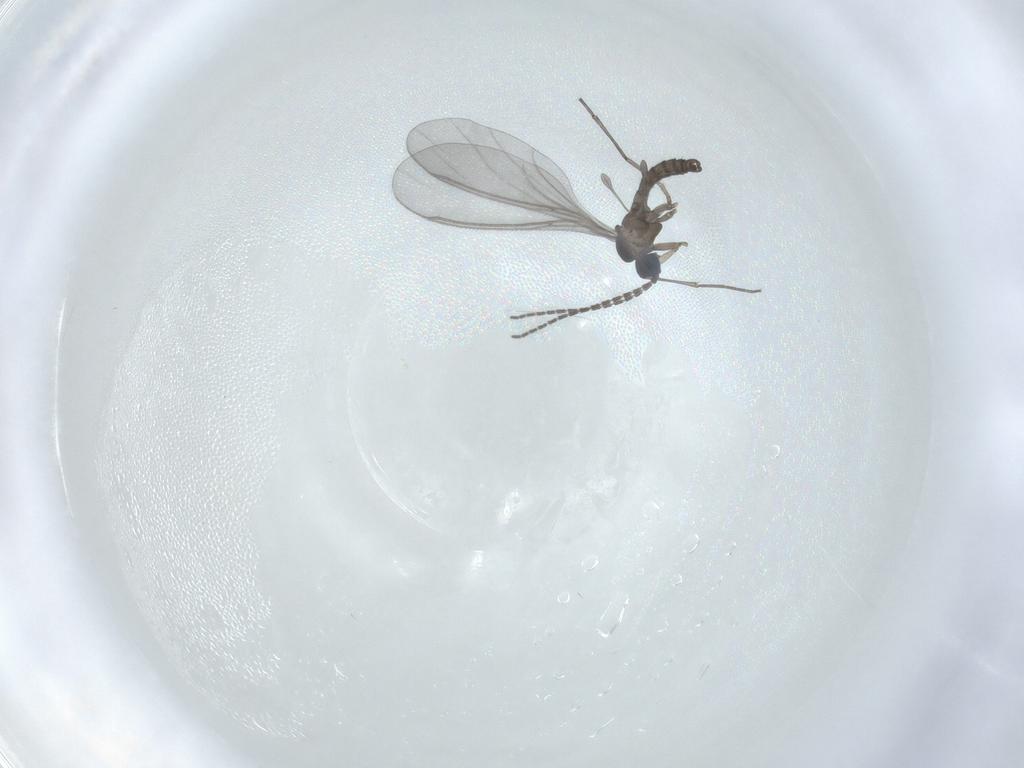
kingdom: Animalia
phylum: Arthropoda
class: Insecta
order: Diptera
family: Sciaridae
